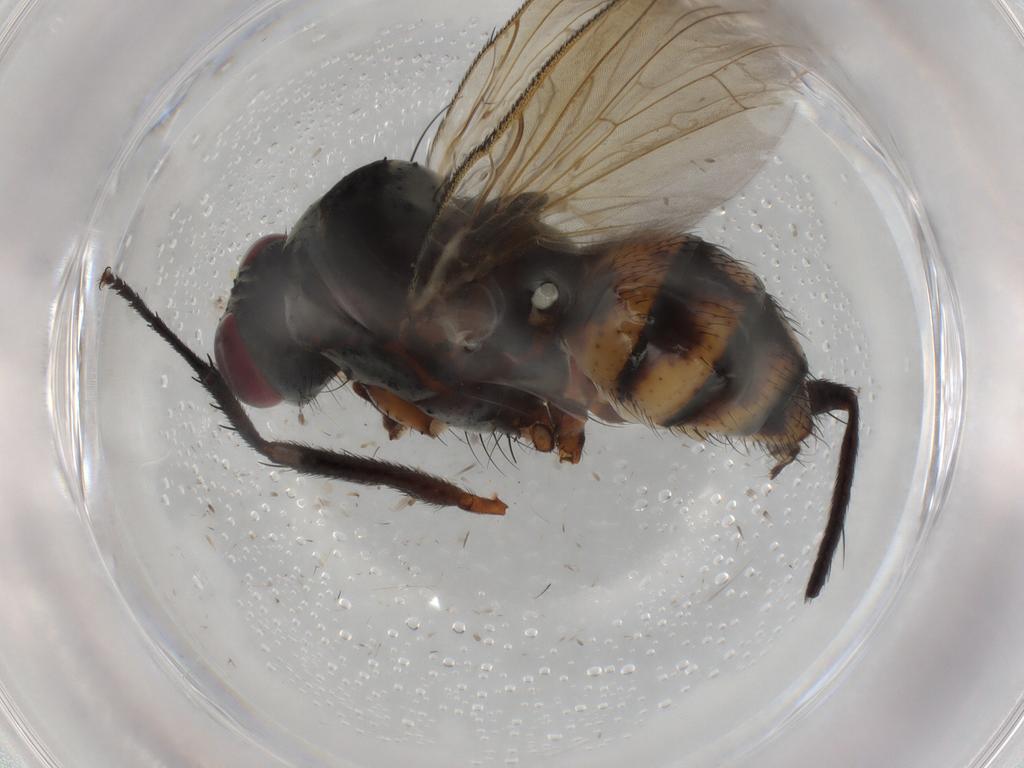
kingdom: Animalia
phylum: Arthropoda
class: Insecta
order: Diptera
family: Anthomyiidae
